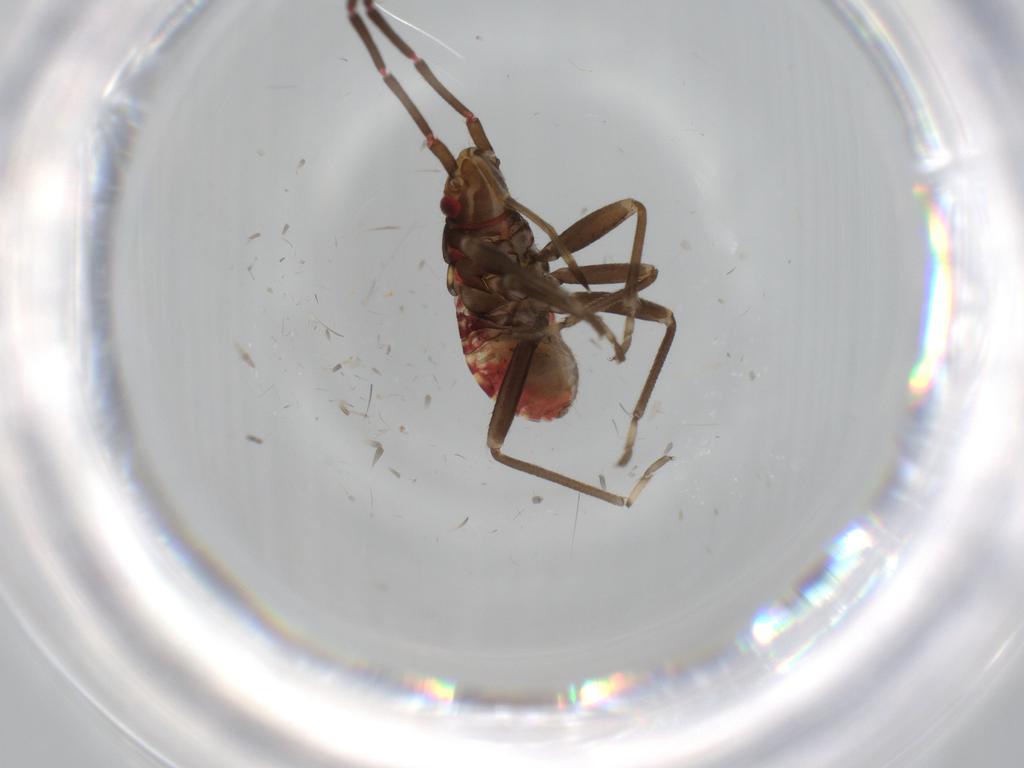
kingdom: Animalia
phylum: Arthropoda
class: Insecta
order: Hemiptera
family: Rhyparochromidae
